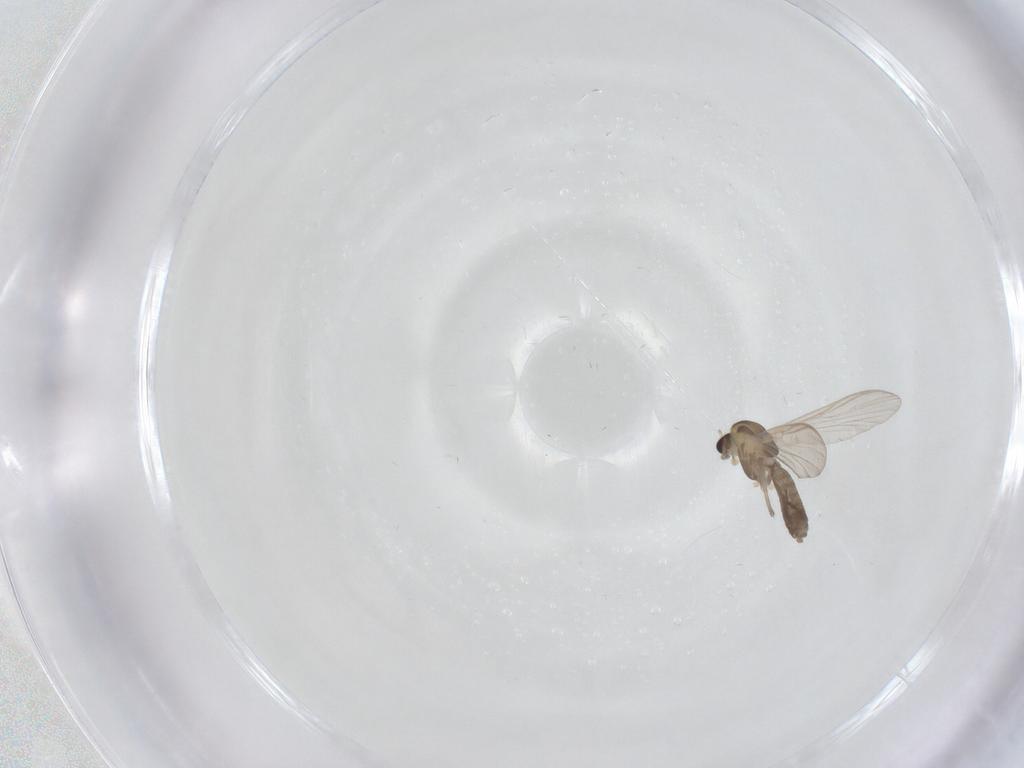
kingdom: Animalia
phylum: Arthropoda
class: Insecta
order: Diptera
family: Chironomidae
